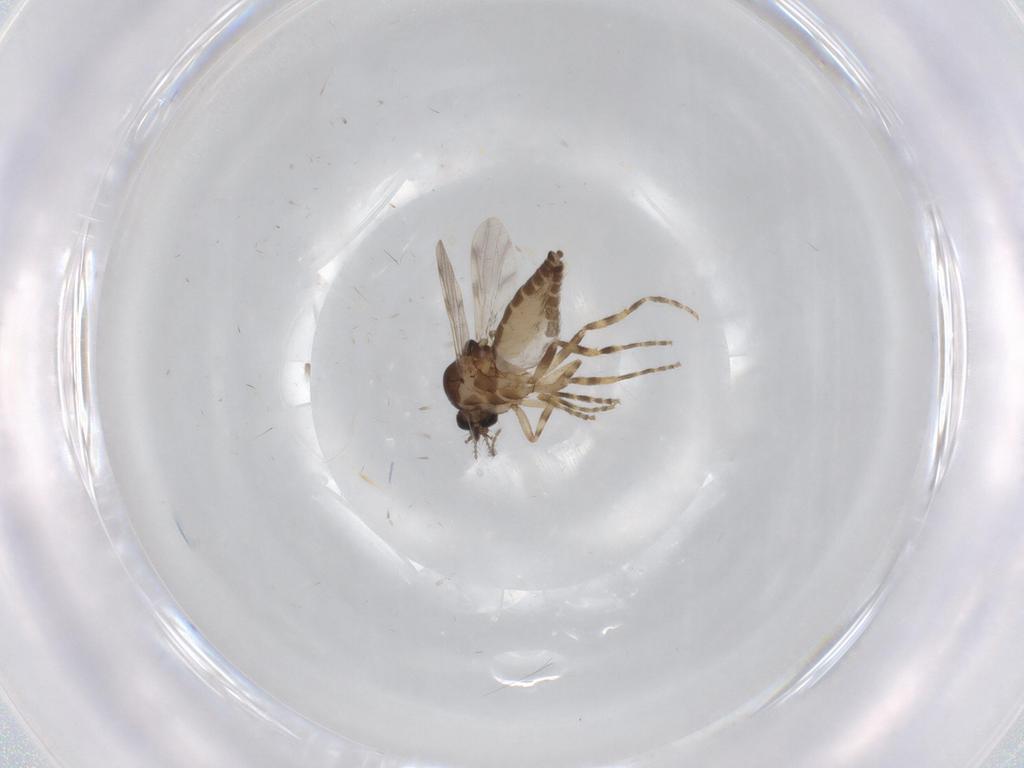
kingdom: Animalia
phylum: Arthropoda
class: Insecta
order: Diptera
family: Ceratopogonidae
